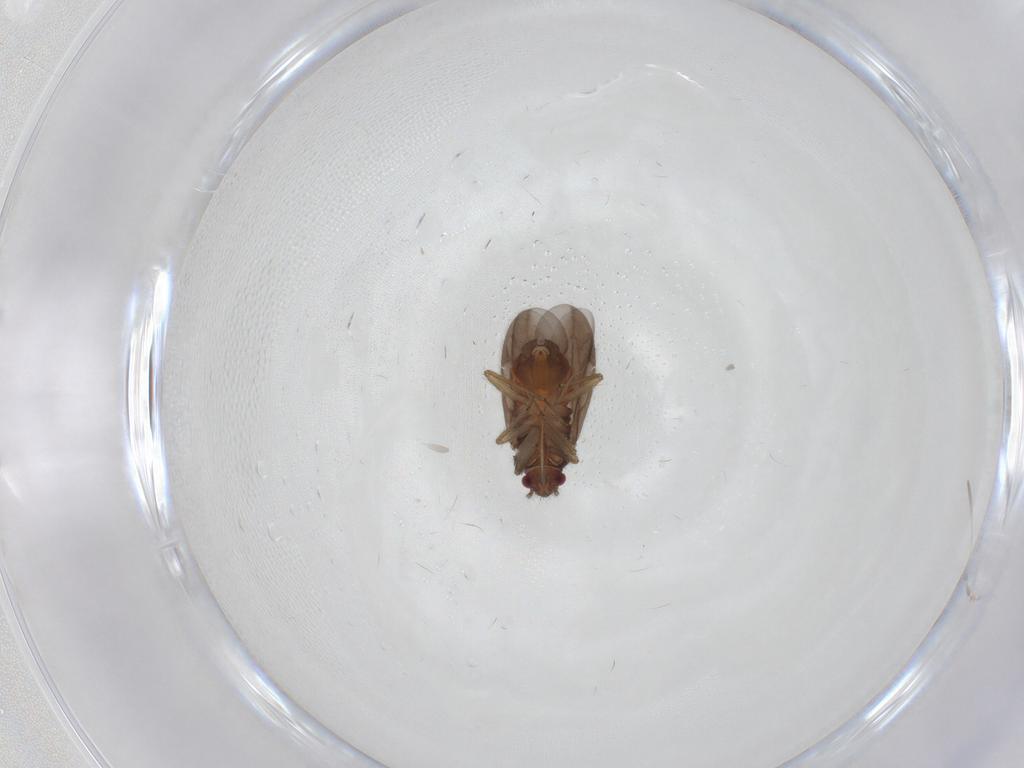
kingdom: Animalia
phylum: Arthropoda
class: Insecta
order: Hemiptera
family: Ceratocombidae
